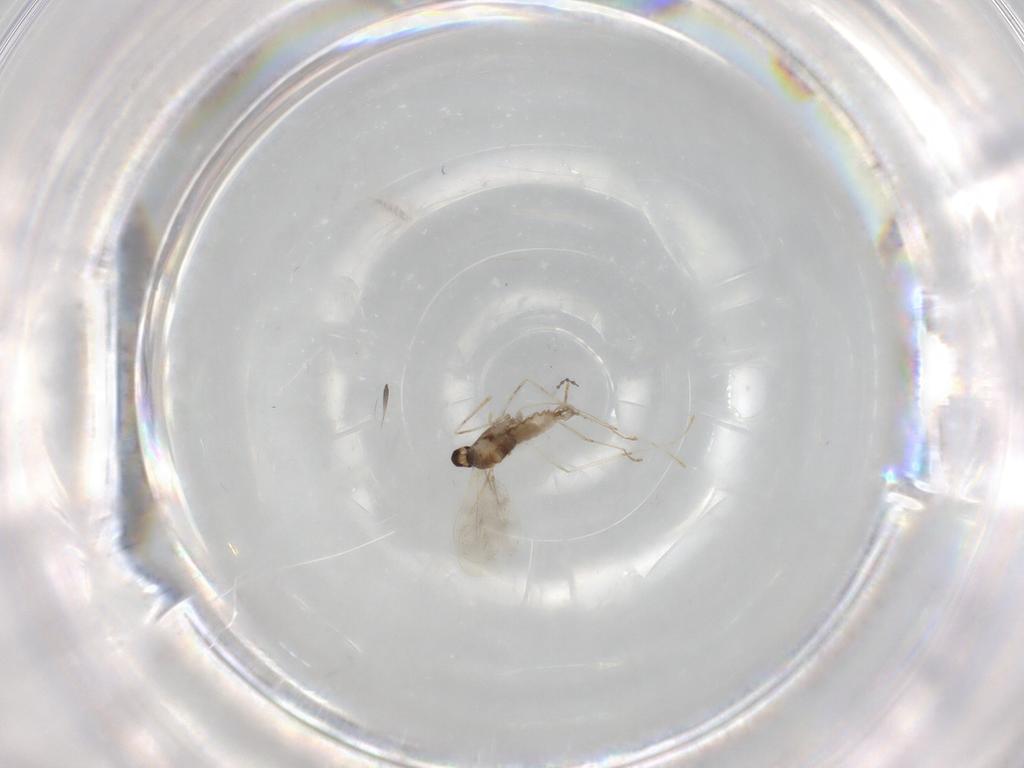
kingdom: Animalia
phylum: Arthropoda
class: Insecta
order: Diptera
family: Cecidomyiidae
